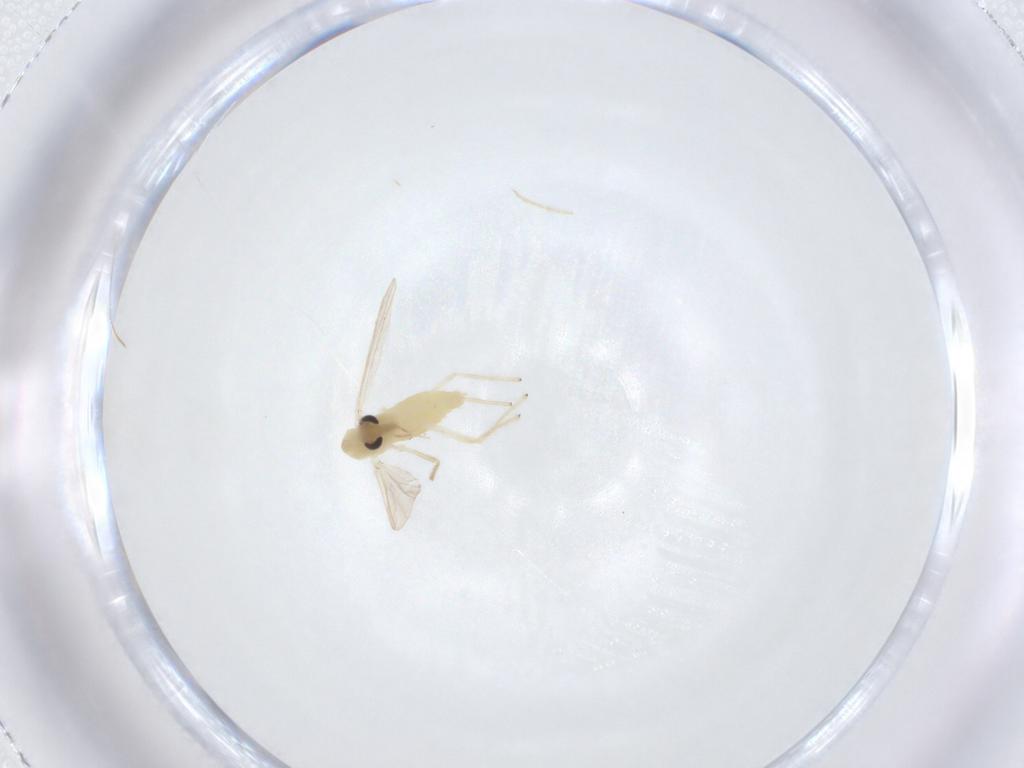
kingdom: Animalia
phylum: Arthropoda
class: Insecta
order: Diptera
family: Chironomidae
